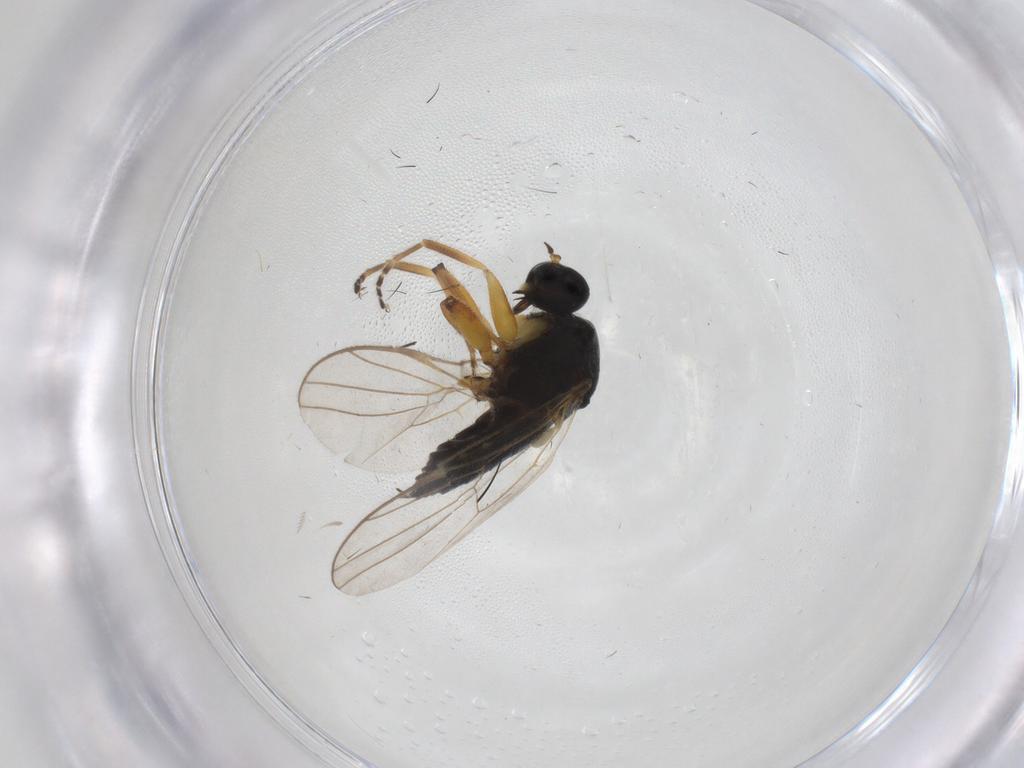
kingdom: Animalia
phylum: Arthropoda
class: Insecta
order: Diptera
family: Hybotidae
